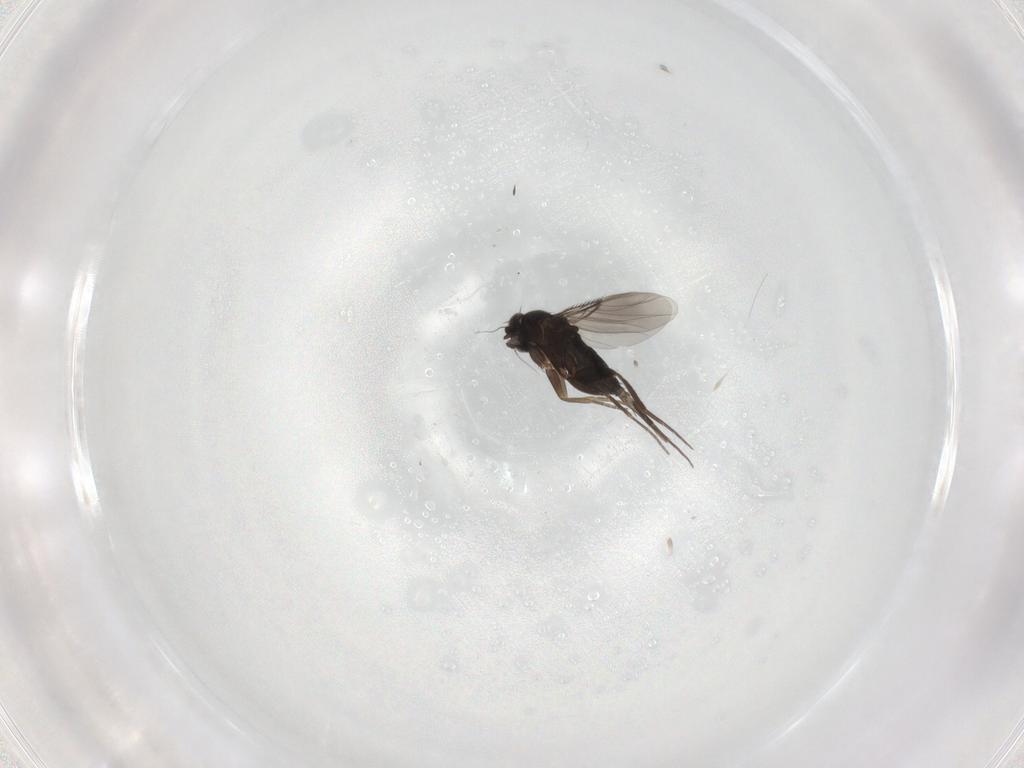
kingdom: Animalia
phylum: Arthropoda
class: Insecta
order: Diptera
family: Phoridae
